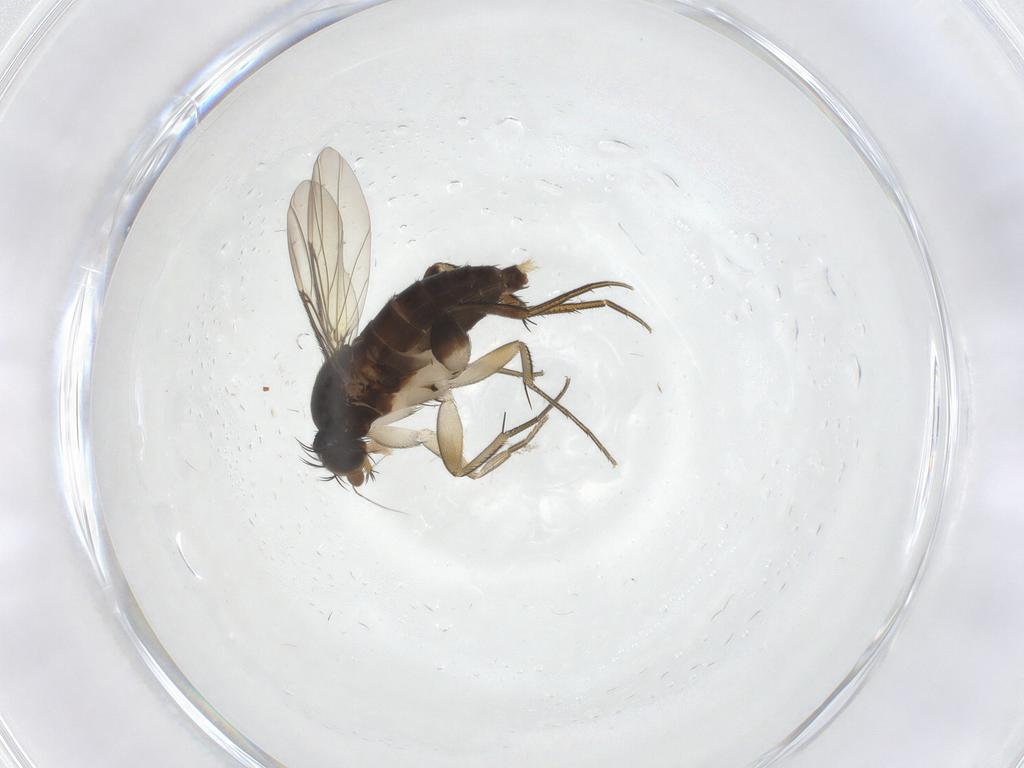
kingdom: Animalia
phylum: Arthropoda
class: Insecta
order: Diptera
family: Phoridae
